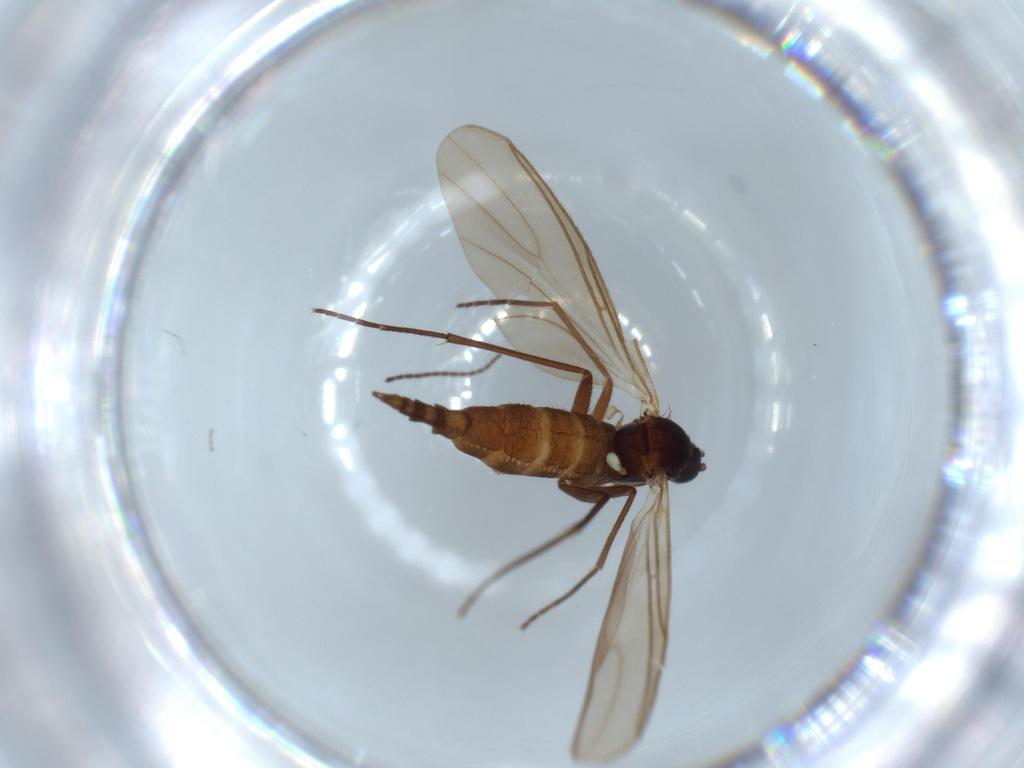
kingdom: Animalia
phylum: Arthropoda
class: Insecta
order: Diptera
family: Sciaridae
